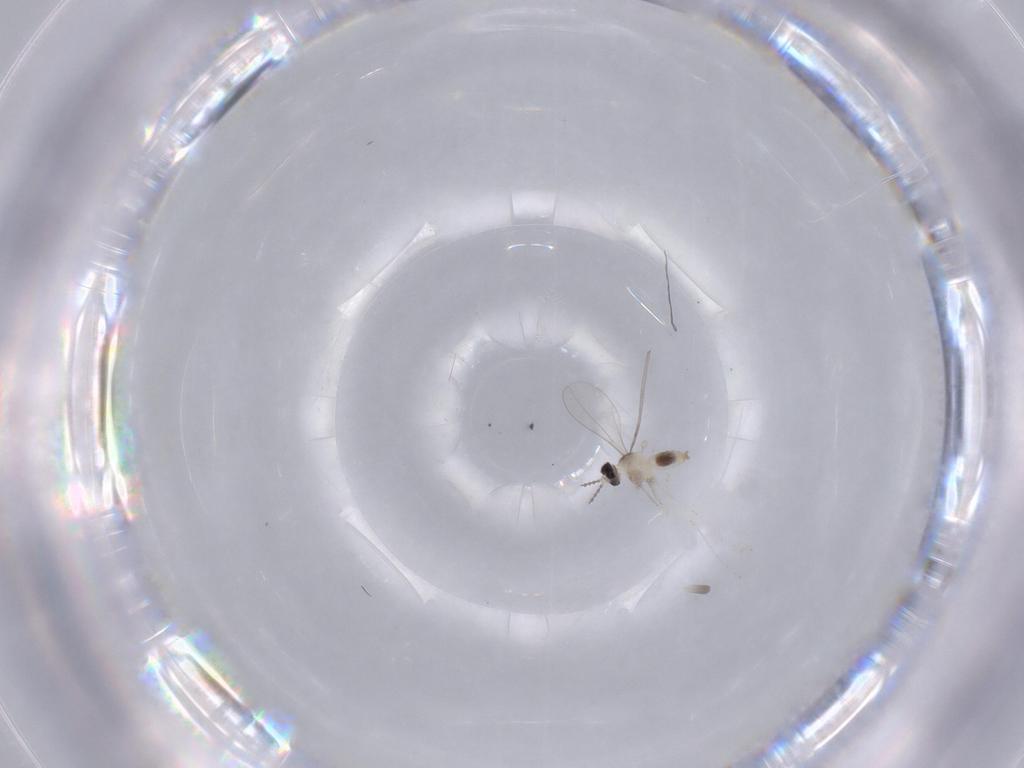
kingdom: Animalia
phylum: Arthropoda
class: Insecta
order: Diptera
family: Cecidomyiidae
